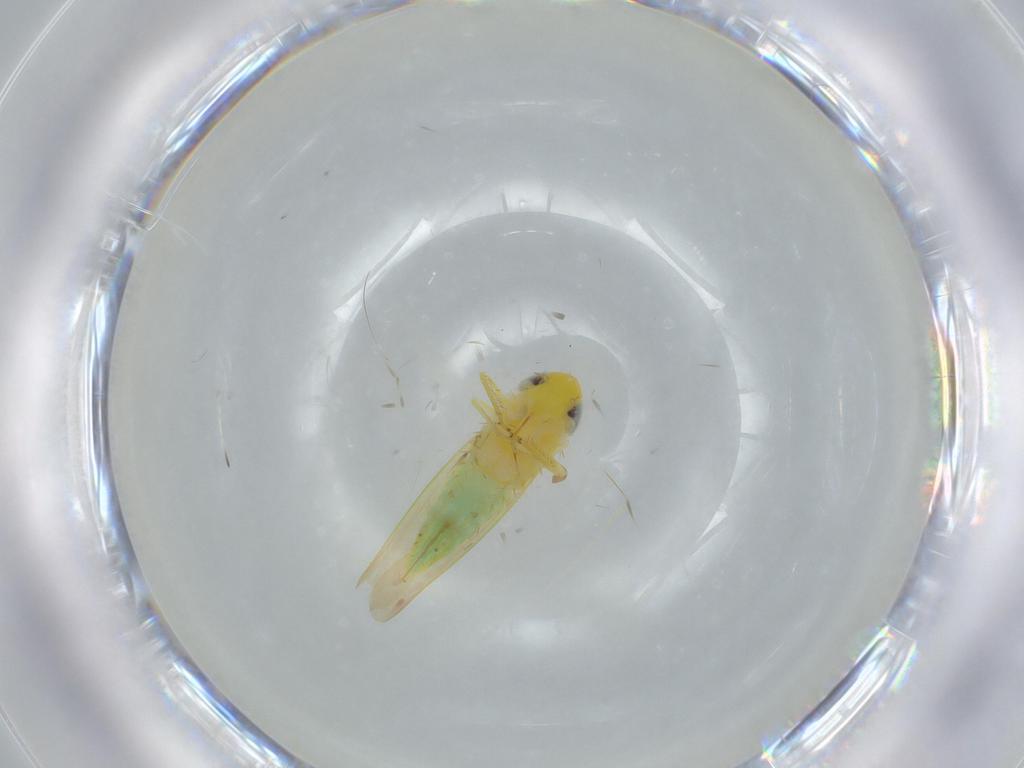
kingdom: Animalia
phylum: Arthropoda
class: Insecta
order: Hemiptera
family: Cicadellidae
